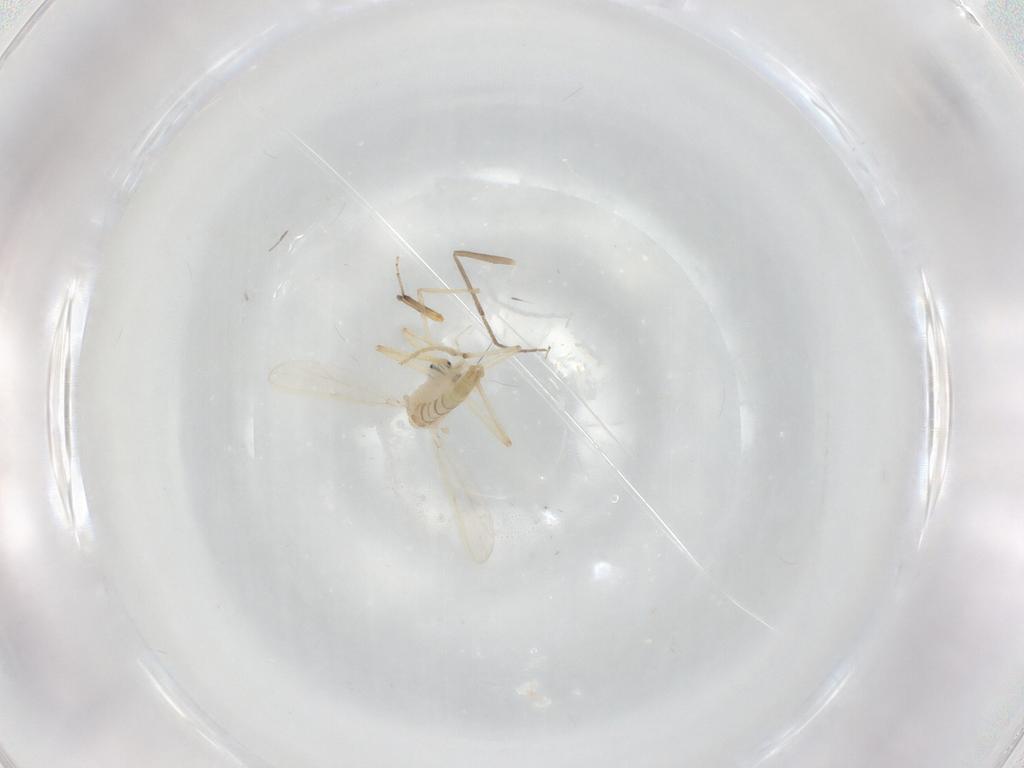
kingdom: Animalia
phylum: Arthropoda
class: Insecta
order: Diptera
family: Chironomidae
